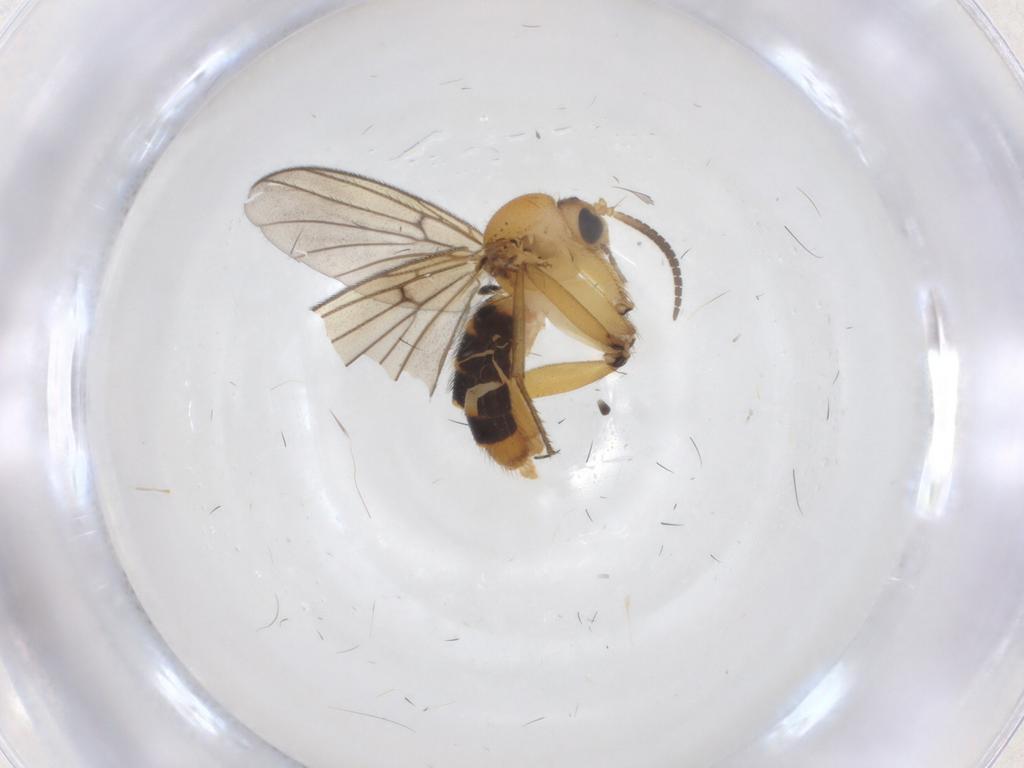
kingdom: Animalia
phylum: Arthropoda
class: Insecta
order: Diptera
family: Mycetophilidae
